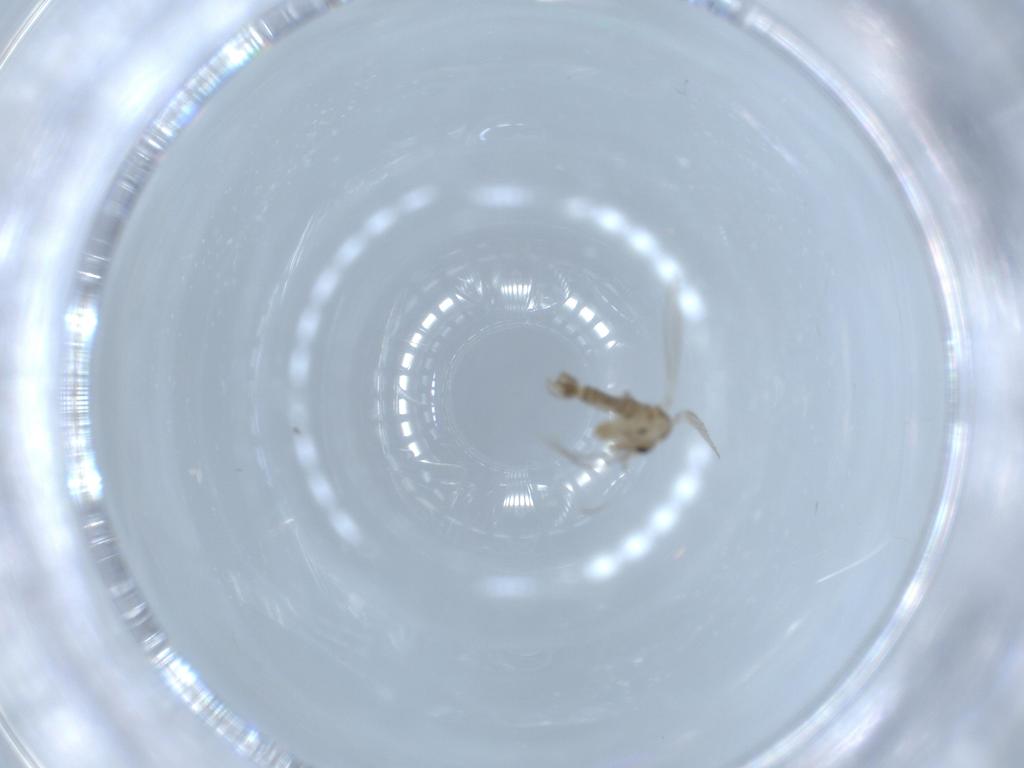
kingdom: Animalia
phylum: Arthropoda
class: Insecta
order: Diptera
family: Psychodidae
